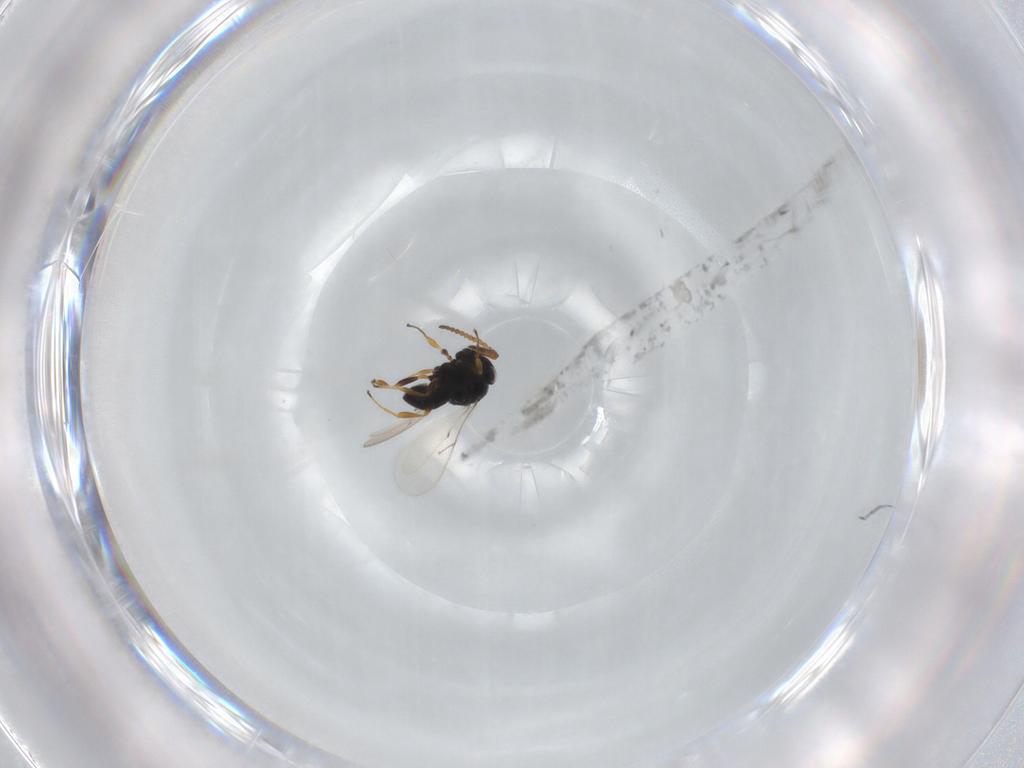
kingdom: Animalia
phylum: Arthropoda
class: Insecta
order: Hymenoptera
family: Scelionidae
